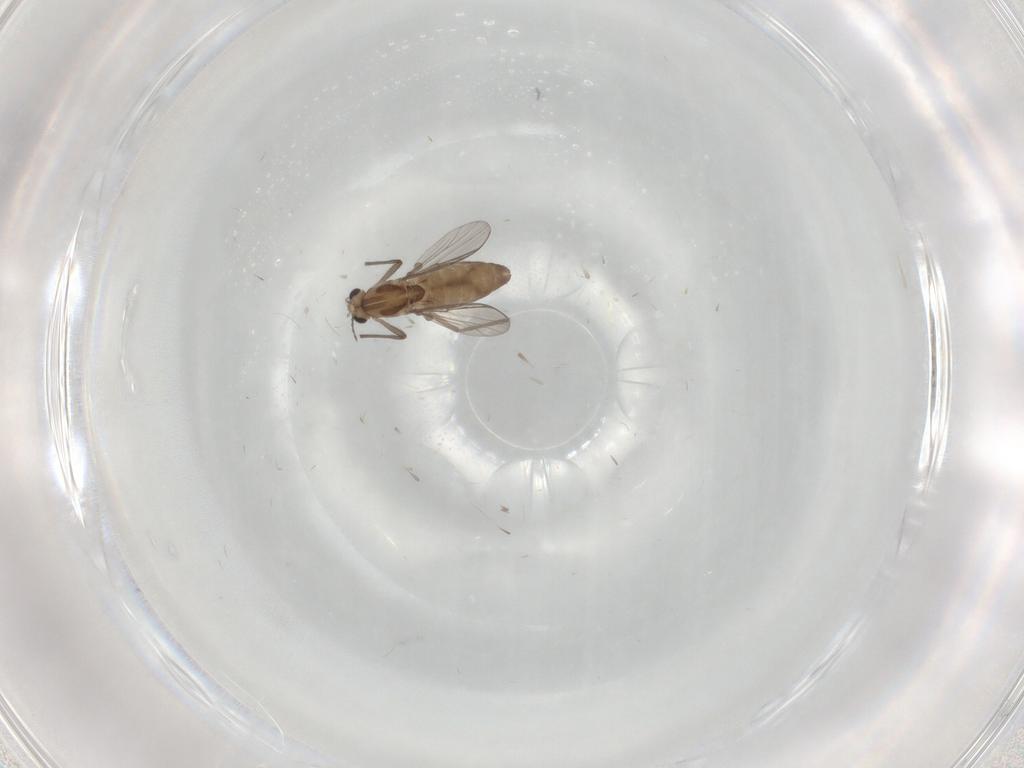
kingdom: Animalia
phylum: Arthropoda
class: Insecta
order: Diptera
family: Chironomidae
